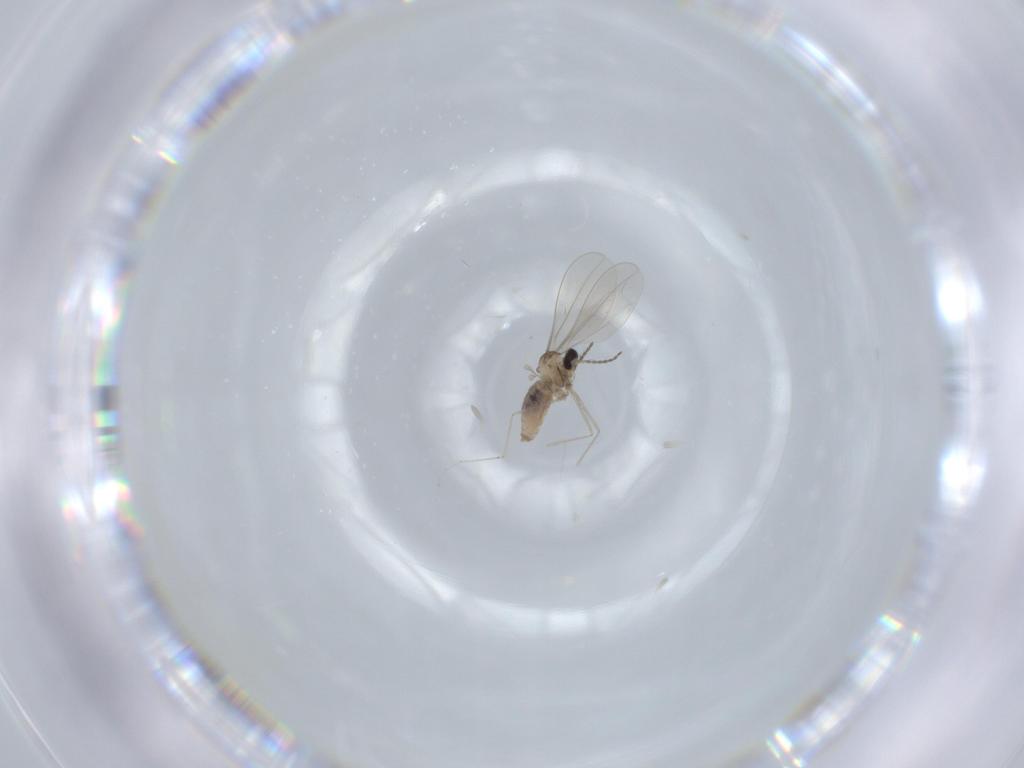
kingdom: Animalia
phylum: Arthropoda
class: Insecta
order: Diptera
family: Cecidomyiidae
